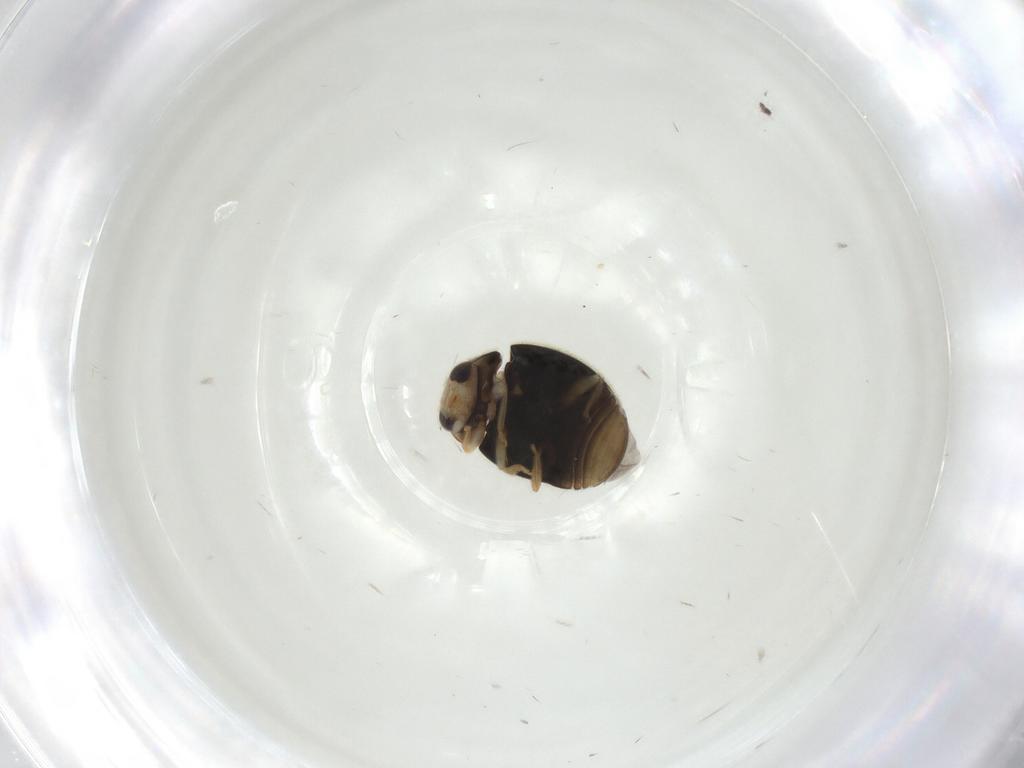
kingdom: Animalia
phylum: Arthropoda
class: Insecta
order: Coleoptera
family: Coccinellidae
